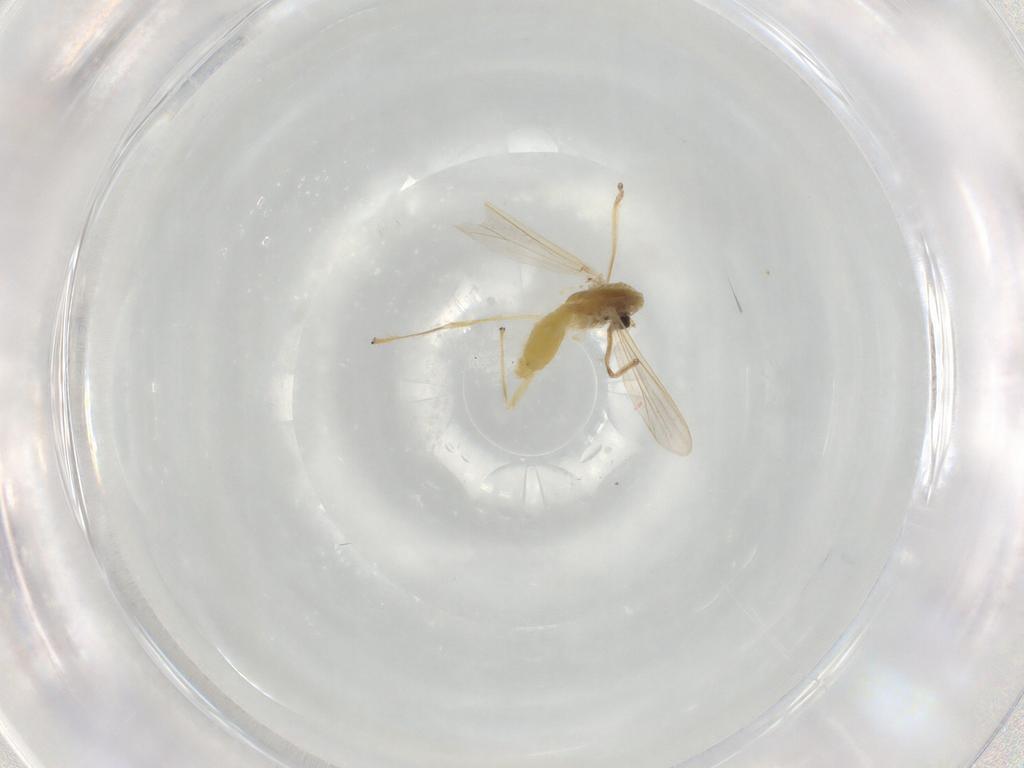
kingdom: Animalia
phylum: Arthropoda
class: Insecta
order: Diptera
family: Chironomidae
